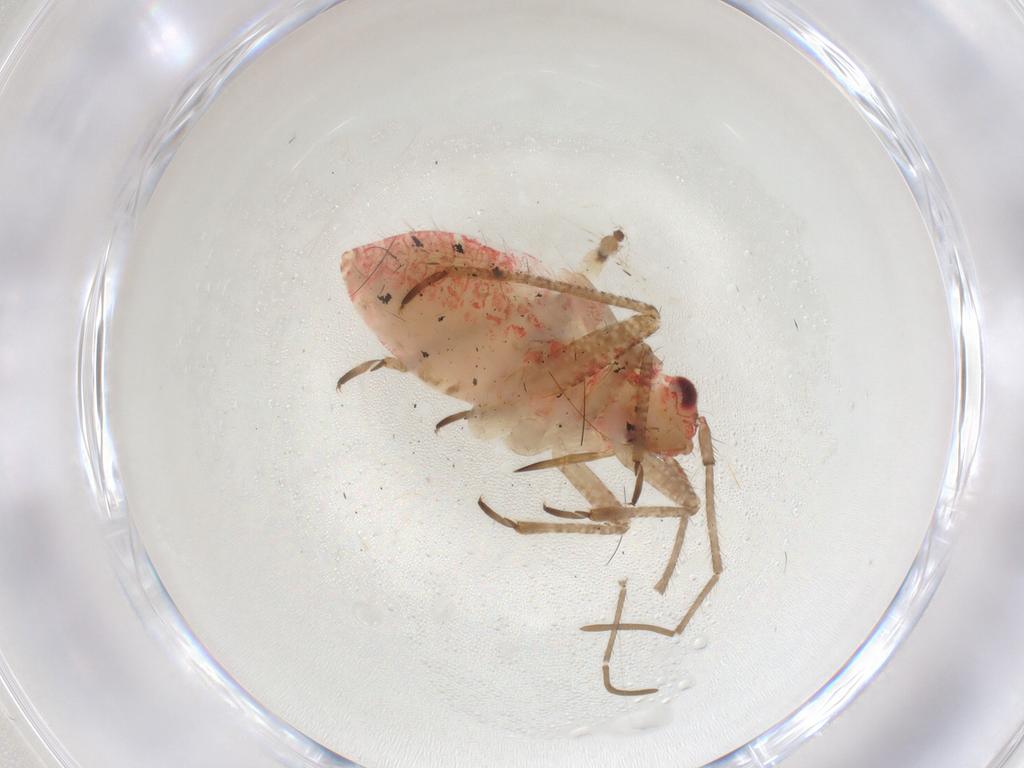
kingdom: Animalia
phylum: Arthropoda
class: Insecta
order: Hemiptera
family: Miridae
